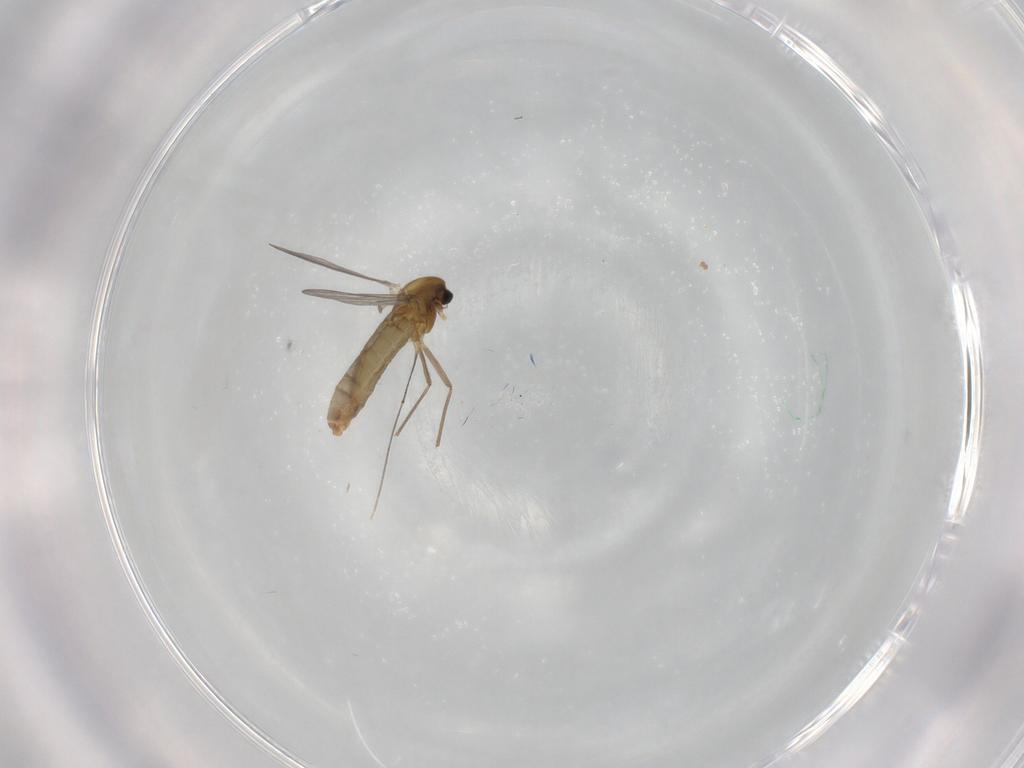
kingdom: Animalia
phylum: Arthropoda
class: Insecta
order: Diptera
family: Chironomidae
